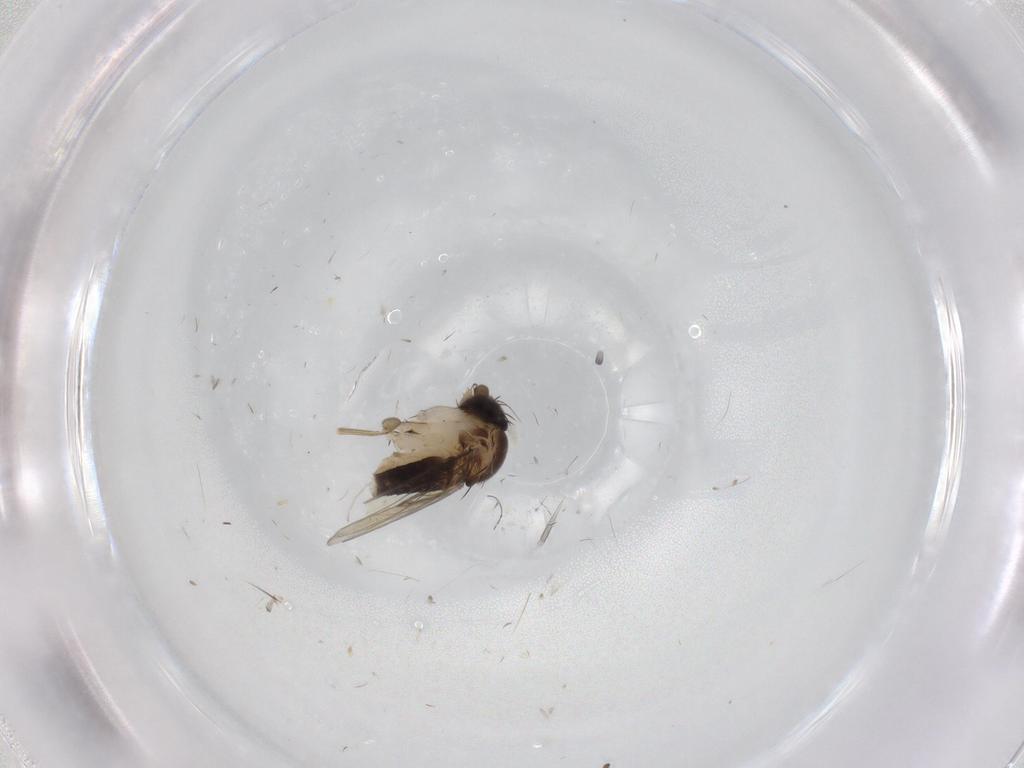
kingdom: Animalia
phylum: Arthropoda
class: Insecta
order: Diptera
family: Phoridae
